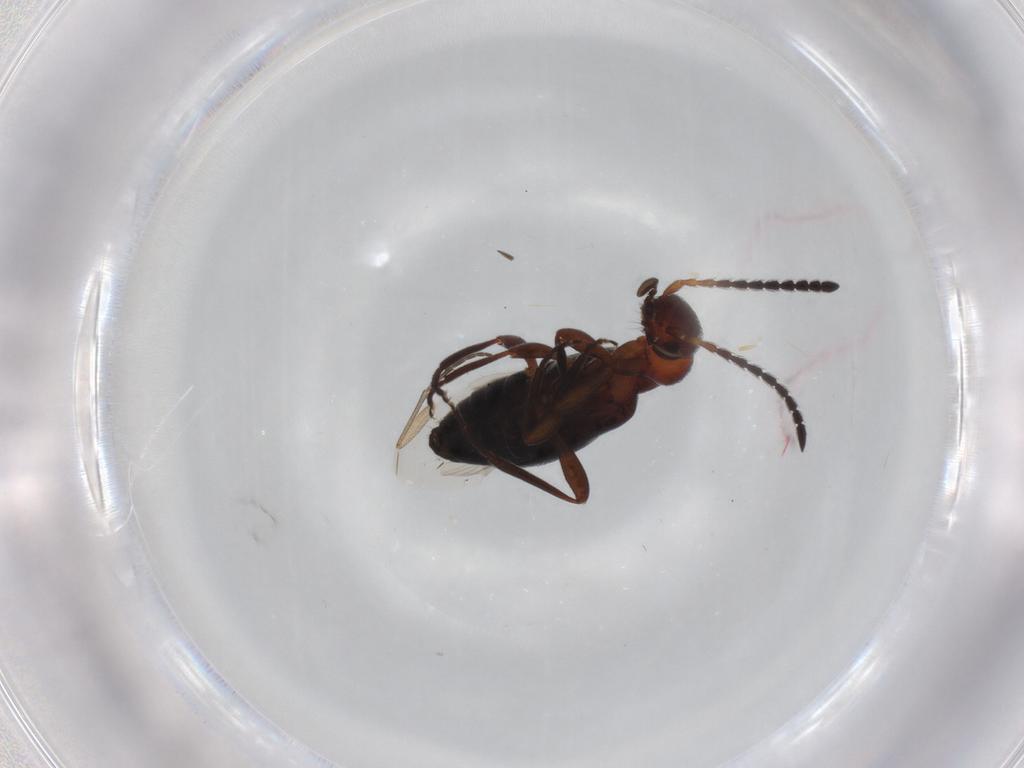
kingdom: Animalia
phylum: Arthropoda
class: Insecta
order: Coleoptera
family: Anthicidae
